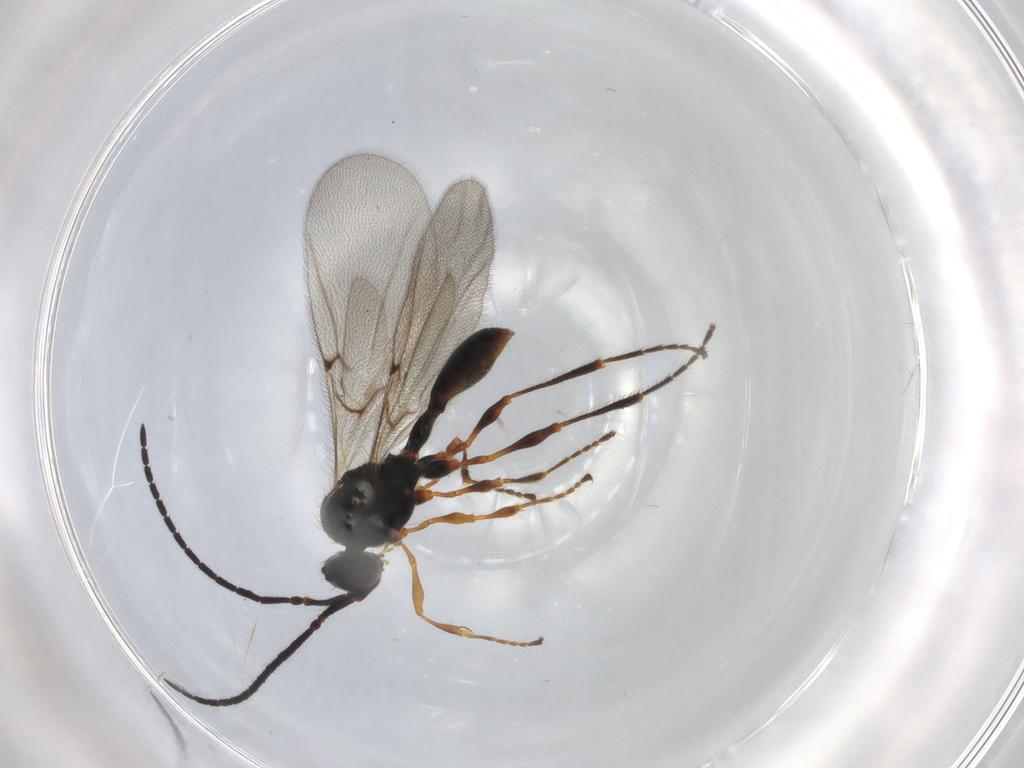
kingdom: Animalia
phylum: Arthropoda
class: Insecta
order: Hymenoptera
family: Diapriidae
